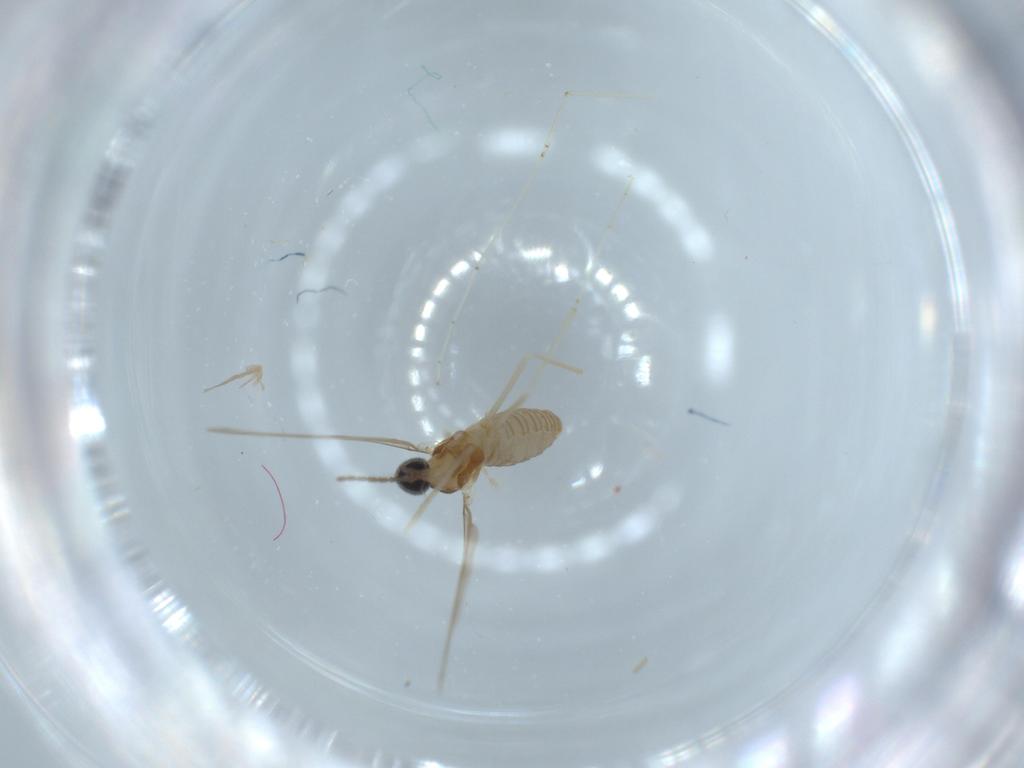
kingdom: Animalia
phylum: Arthropoda
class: Insecta
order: Diptera
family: Ceratopogonidae
